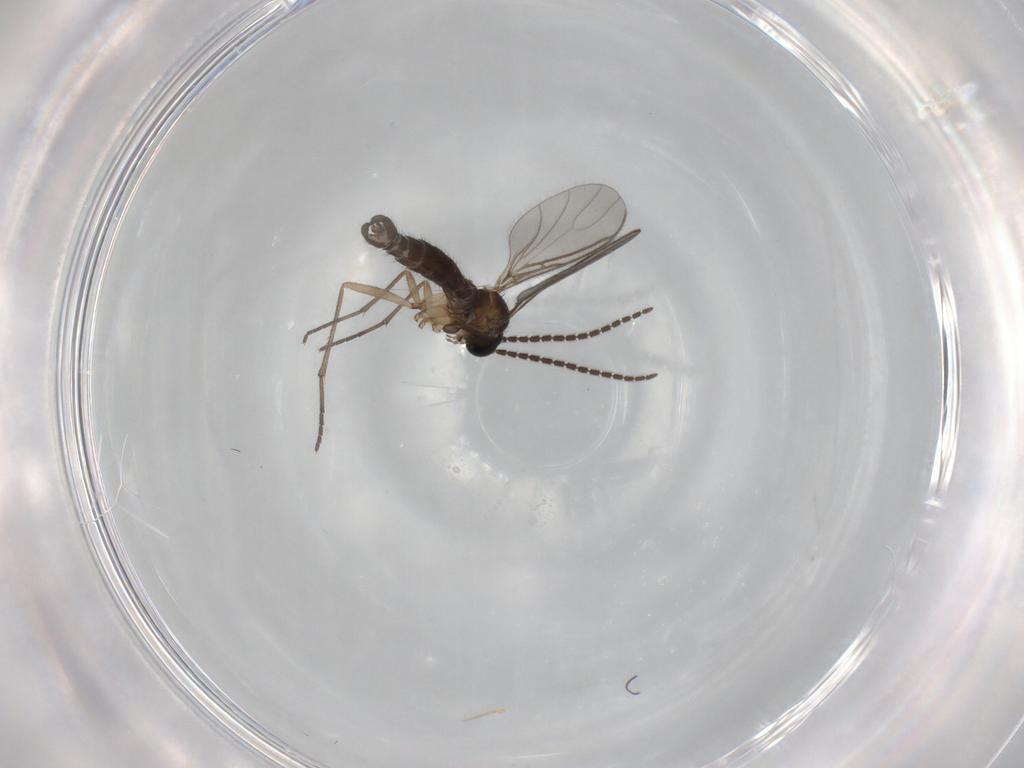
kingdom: Animalia
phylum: Arthropoda
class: Insecta
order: Diptera
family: Sciaridae
